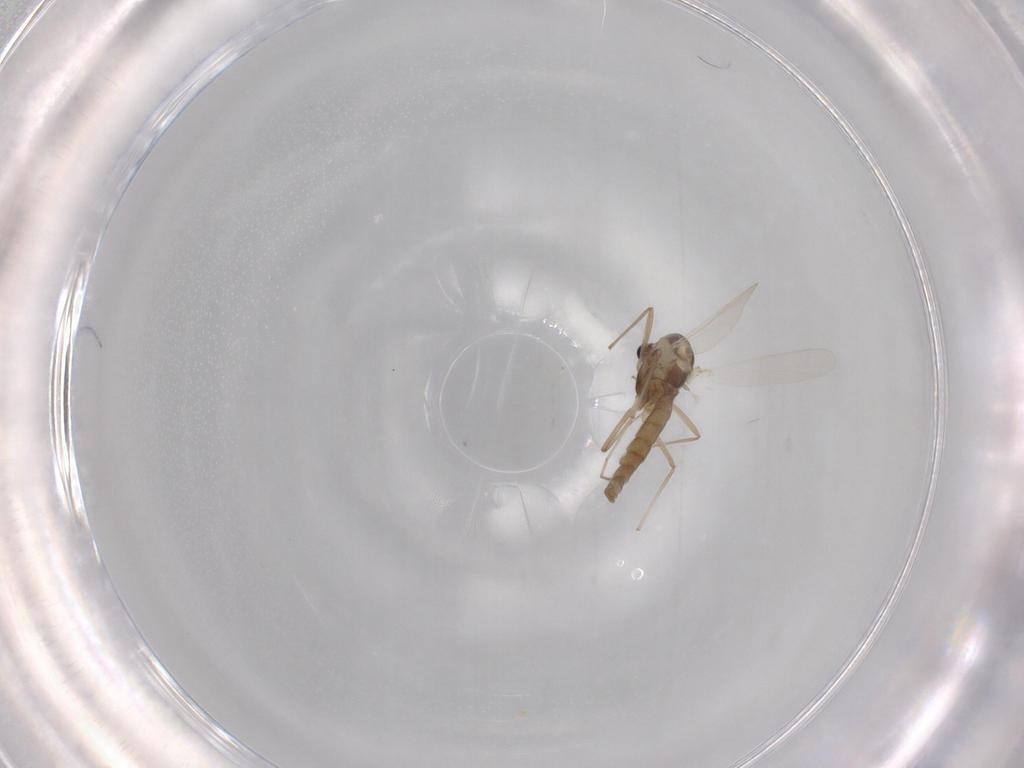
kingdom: Animalia
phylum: Arthropoda
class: Insecta
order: Diptera
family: Chironomidae
